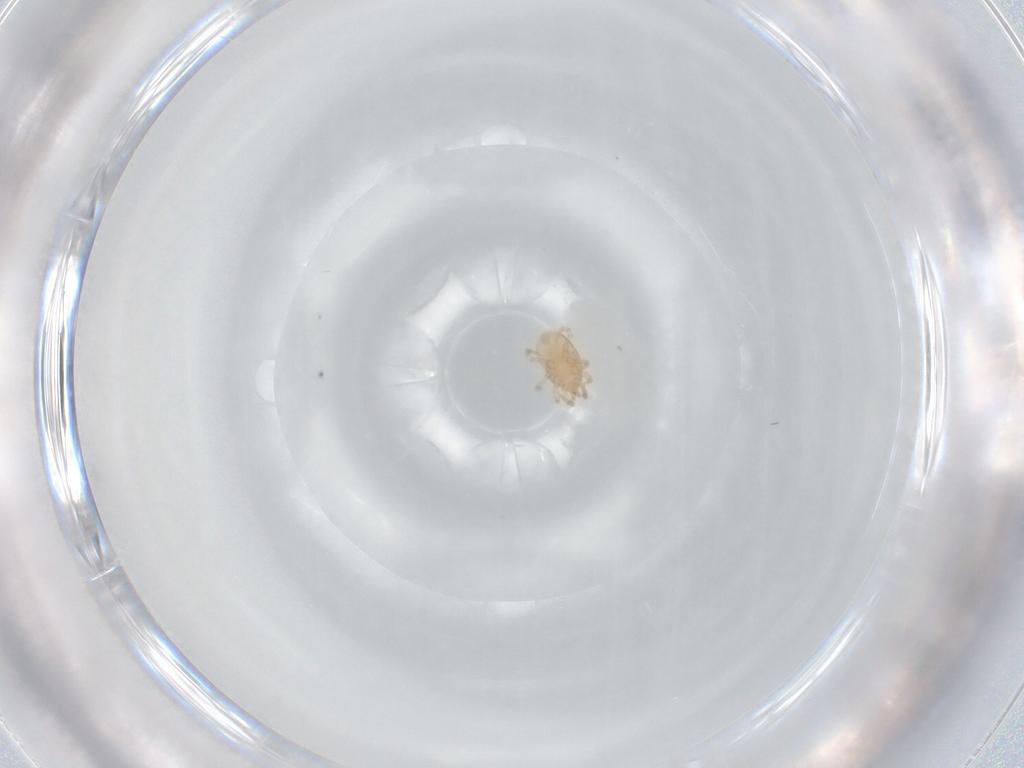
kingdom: Animalia
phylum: Arthropoda
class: Arachnida
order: Mesostigmata
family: Melicharidae
